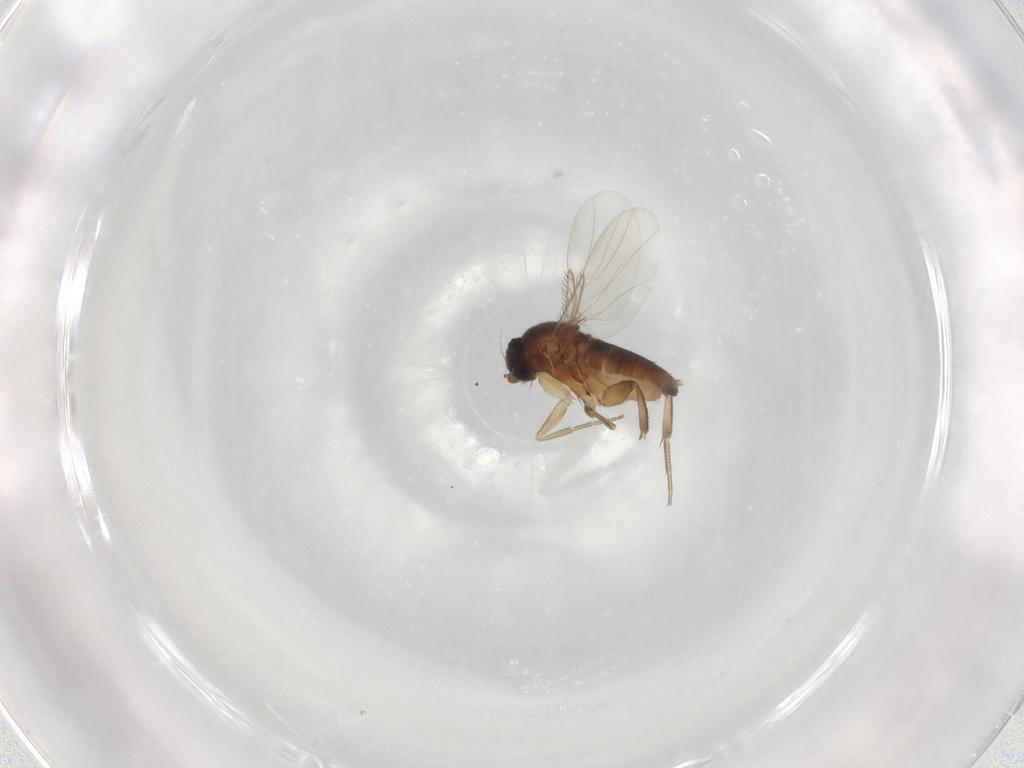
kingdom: Animalia
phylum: Arthropoda
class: Insecta
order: Diptera
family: Phoridae
